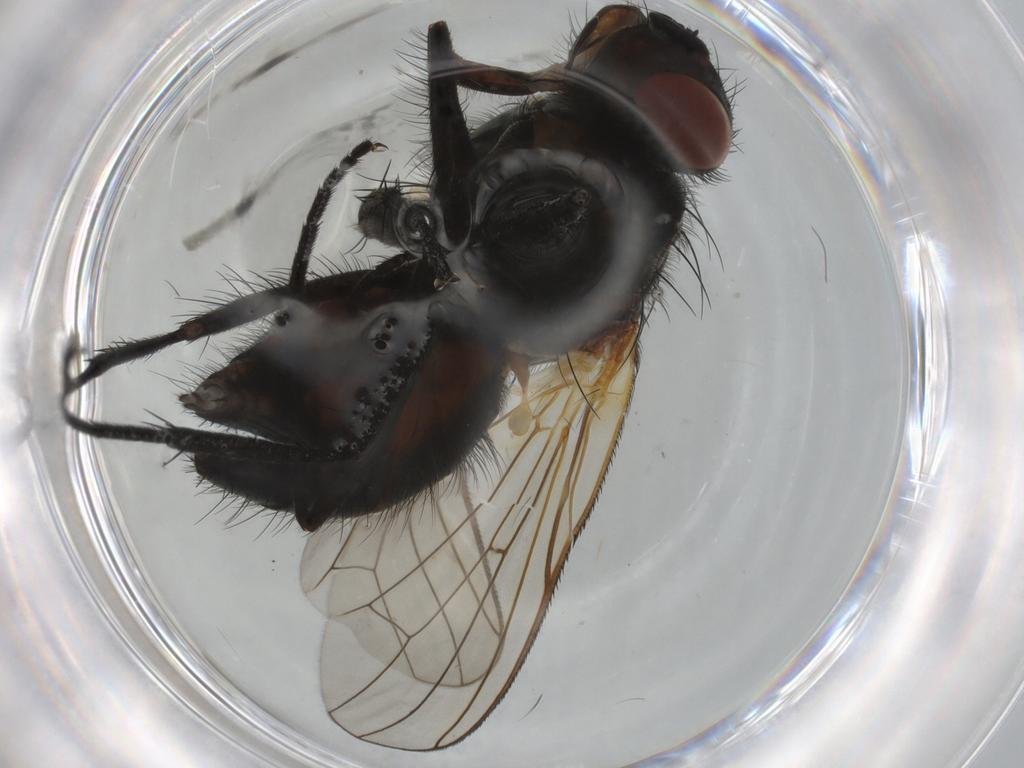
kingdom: Animalia
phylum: Arthropoda
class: Insecta
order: Diptera
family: Anthomyiidae
